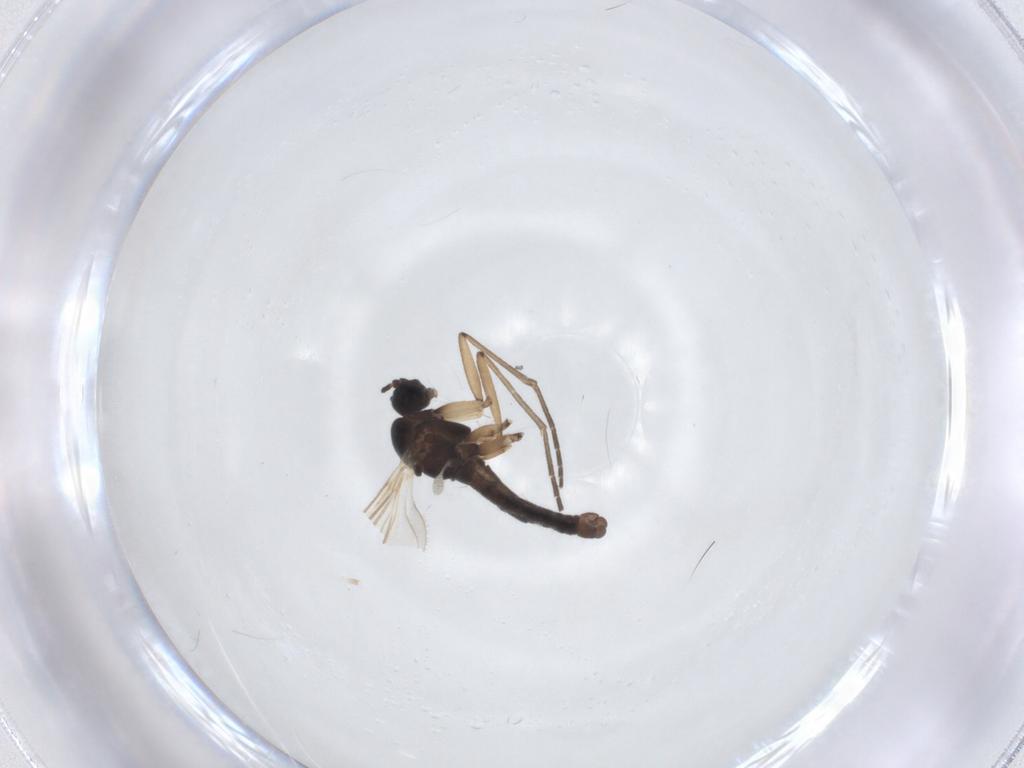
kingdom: Animalia
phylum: Arthropoda
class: Insecta
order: Diptera
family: Sciaridae
